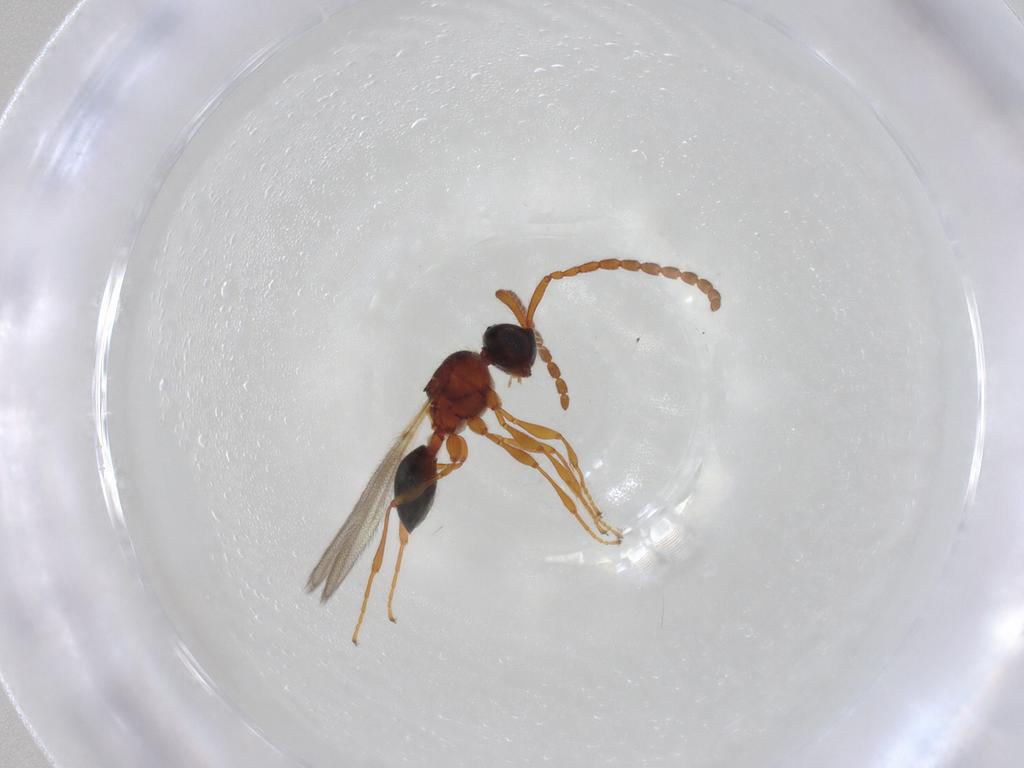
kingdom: Animalia
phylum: Arthropoda
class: Insecta
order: Hymenoptera
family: Diapriidae
